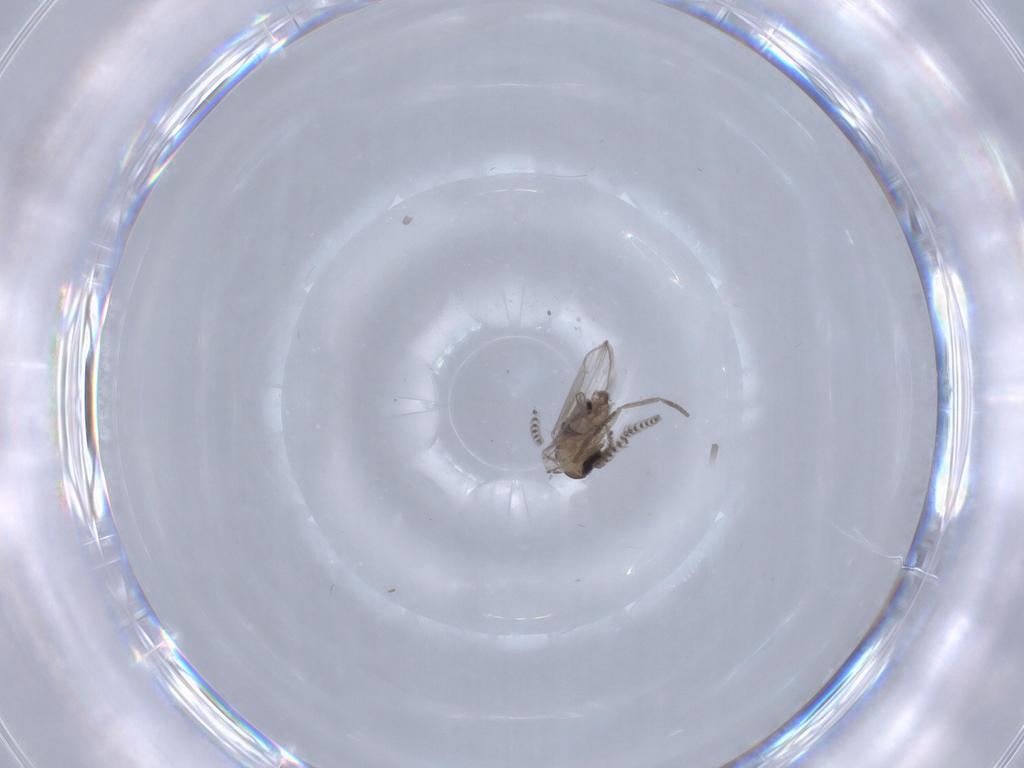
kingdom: Animalia
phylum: Arthropoda
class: Insecta
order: Diptera
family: Psychodidae
